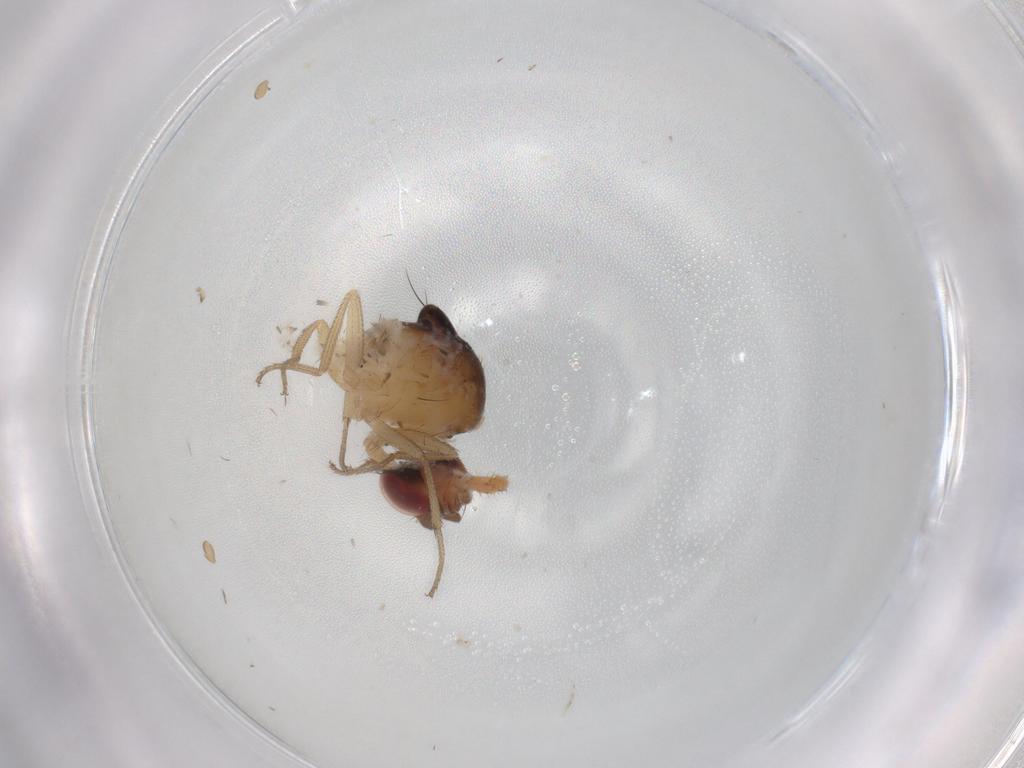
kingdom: Animalia
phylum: Arthropoda
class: Insecta
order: Diptera
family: Drosophilidae
